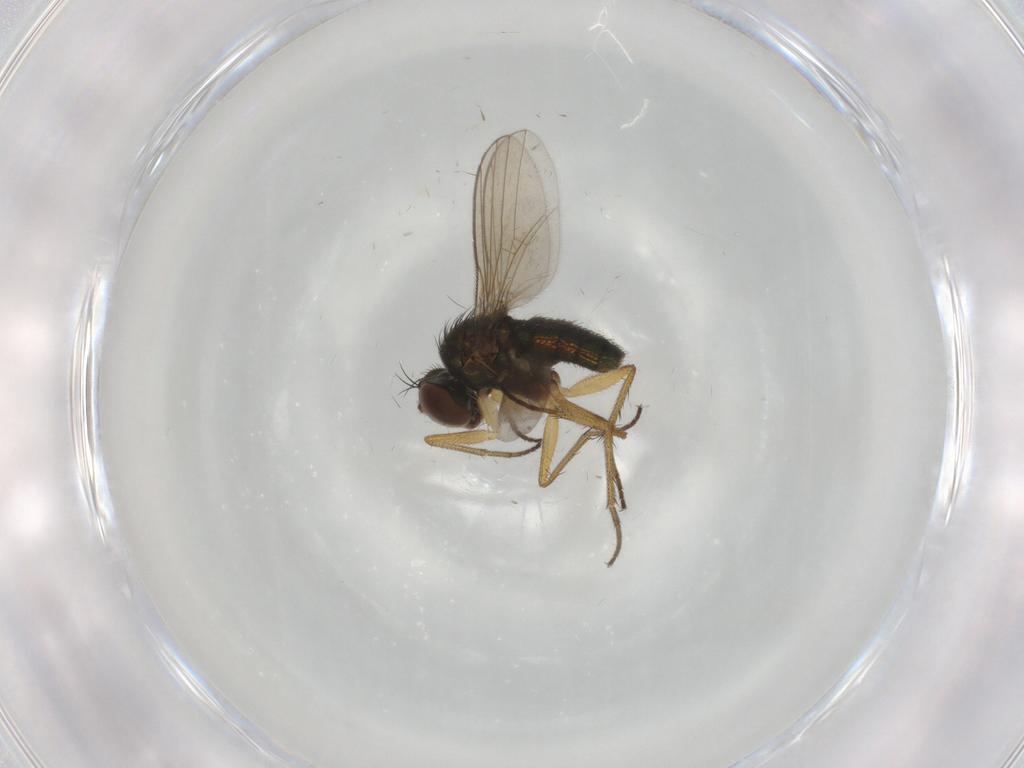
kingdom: Animalia
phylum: Arthropoda
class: Insecta
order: Diptera
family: Dolichopodidae
